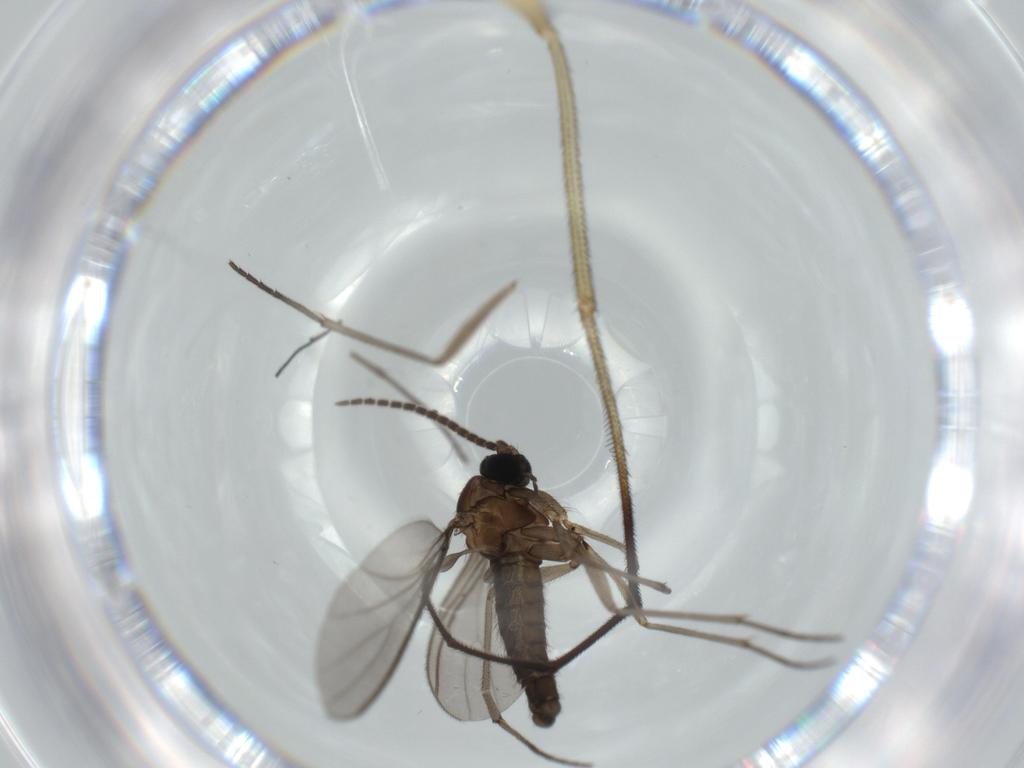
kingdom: Animalia
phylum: Arthropoda
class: Insecta
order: Diptera
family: Sciaridae
